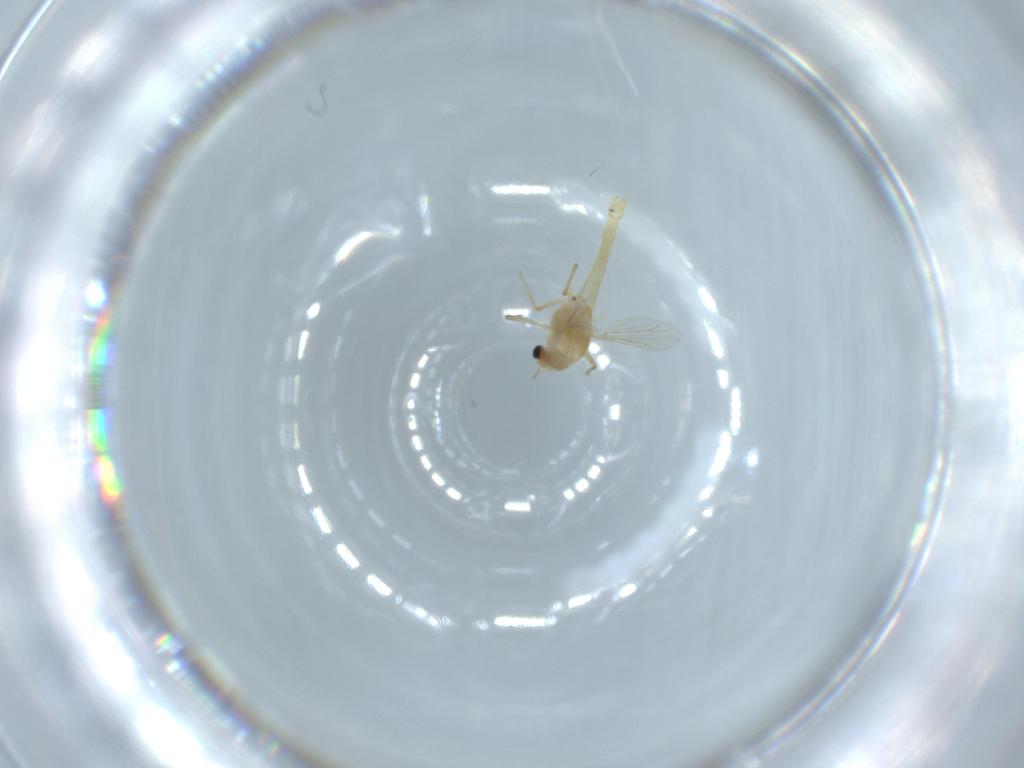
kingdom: Animalia
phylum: Arthropoda
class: Insecta
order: Diptera
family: Chironomidae
